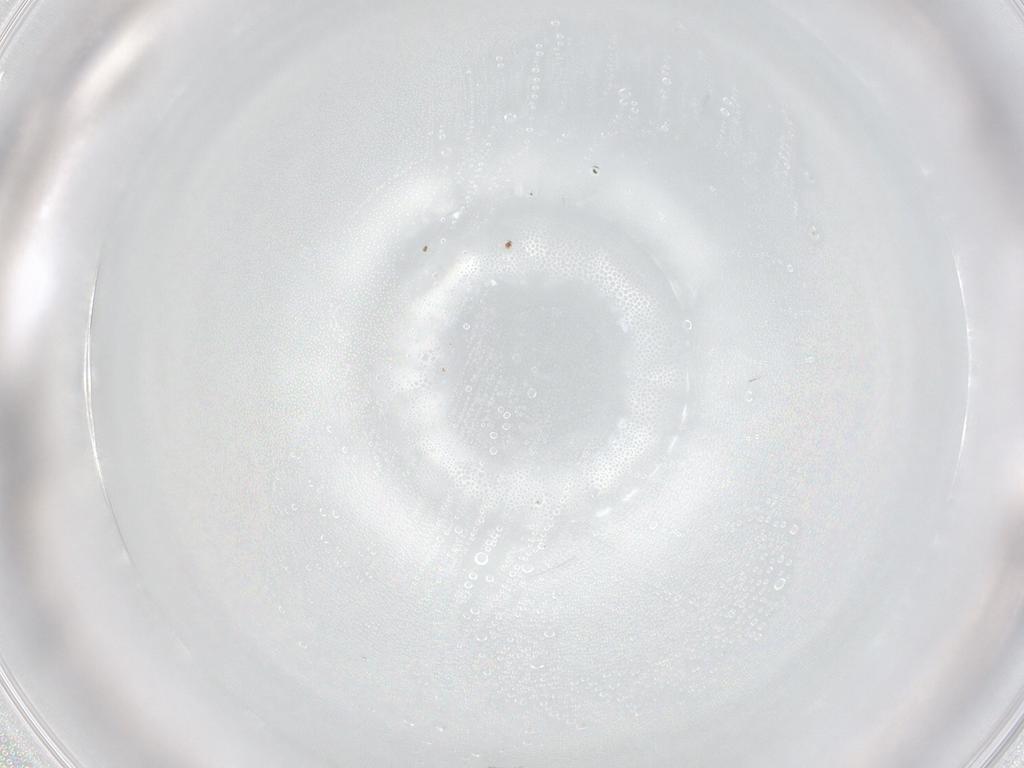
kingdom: Animalia
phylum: Arthropoda
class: Arachnida
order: Sarcoptiformes
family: Ceratozetidae
